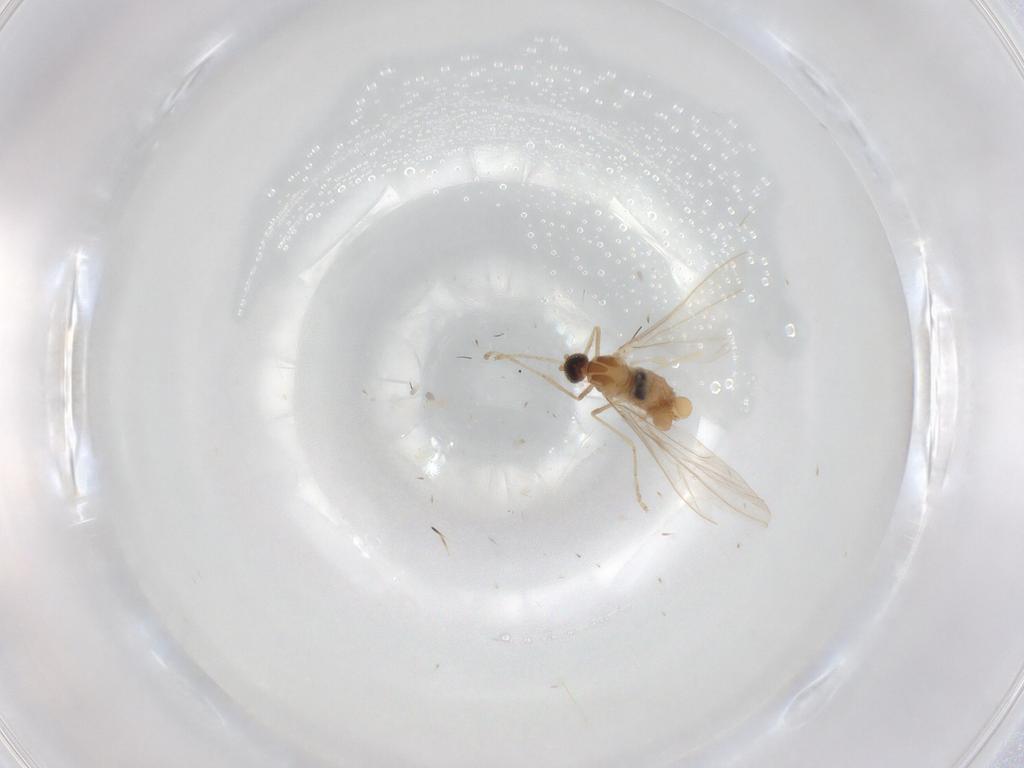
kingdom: Animalia
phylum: Arthropoda
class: Insecta
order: Diptera
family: Cecidomyiidae
